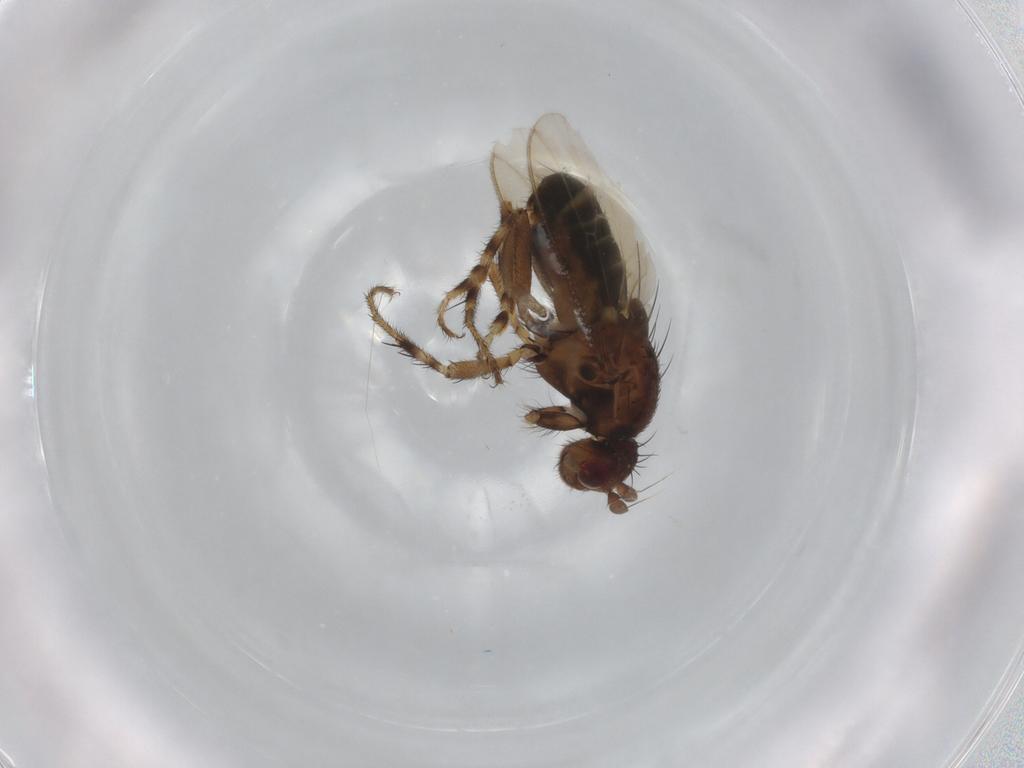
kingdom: Animalia
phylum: Arthropoda
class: Insecta
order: Diptera
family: Sphaeroceridae
